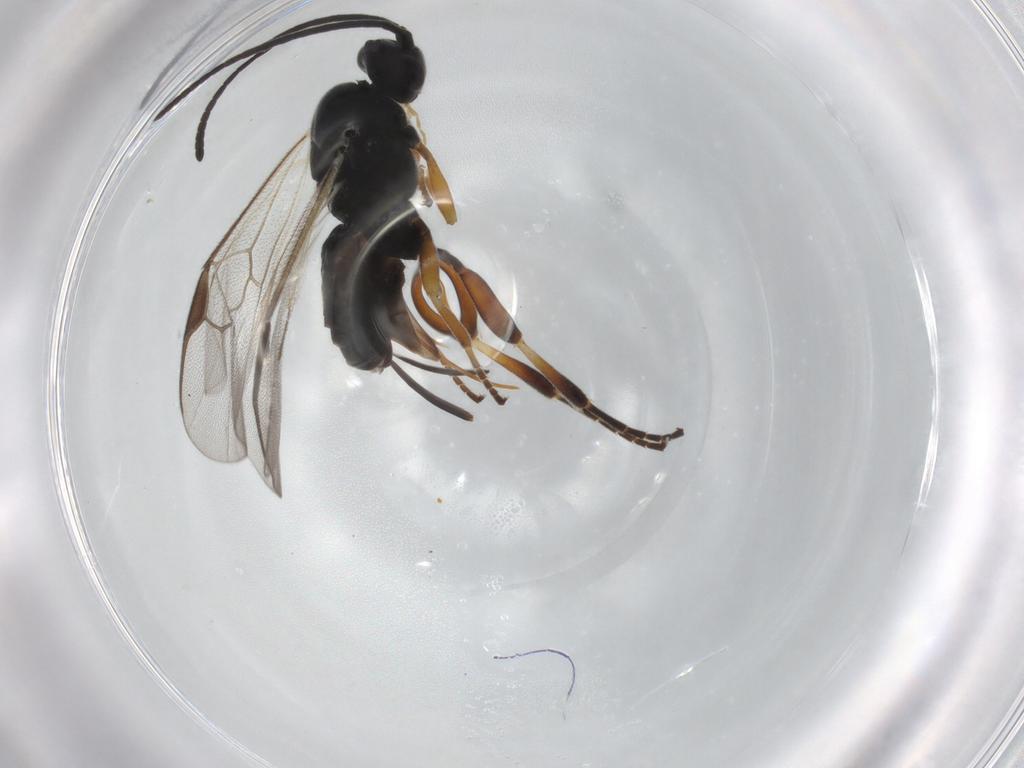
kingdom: Animalia
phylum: Arthropoda
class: Insecta
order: Hymenoptera
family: Braconidae
